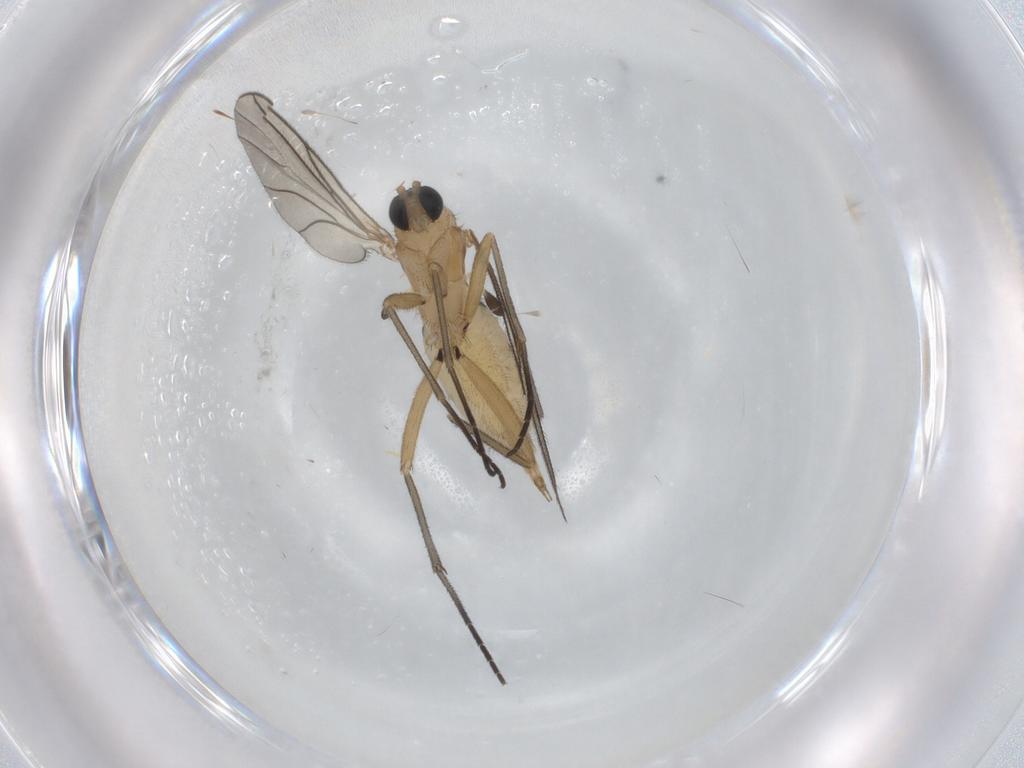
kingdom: Animalia
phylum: Arthropoda
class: Insecta
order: Diptera
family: Sciaridae
